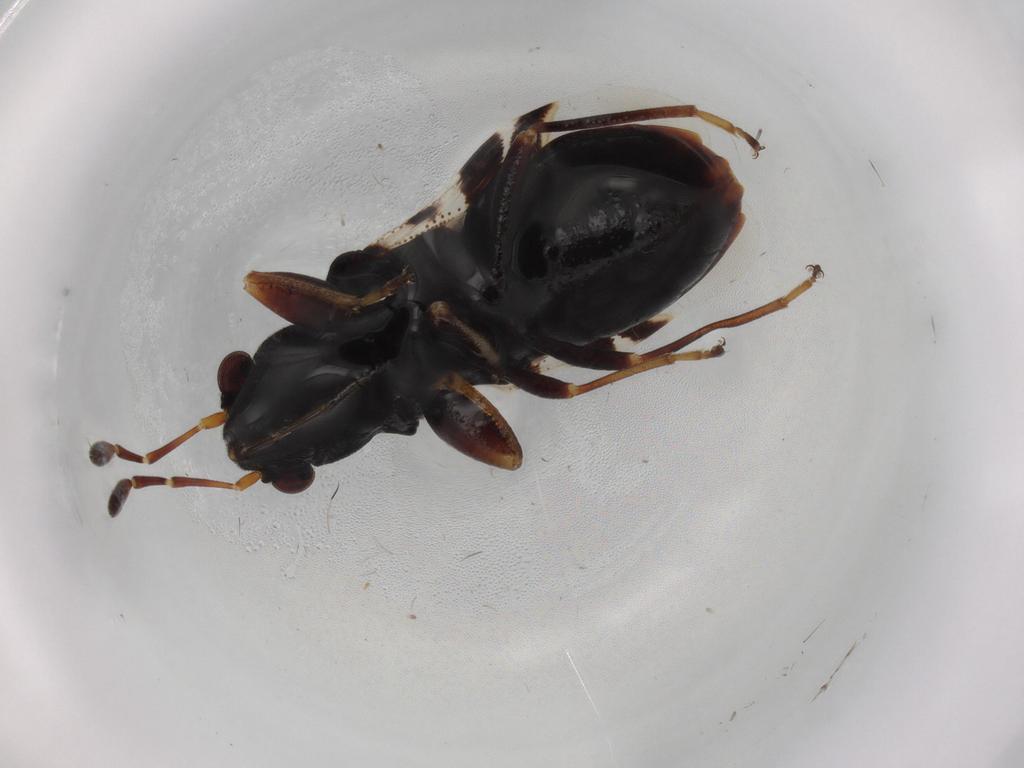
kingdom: Animalia
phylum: Arthropoda
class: Insecta
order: Hemiptera
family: Rhyparochromidae
